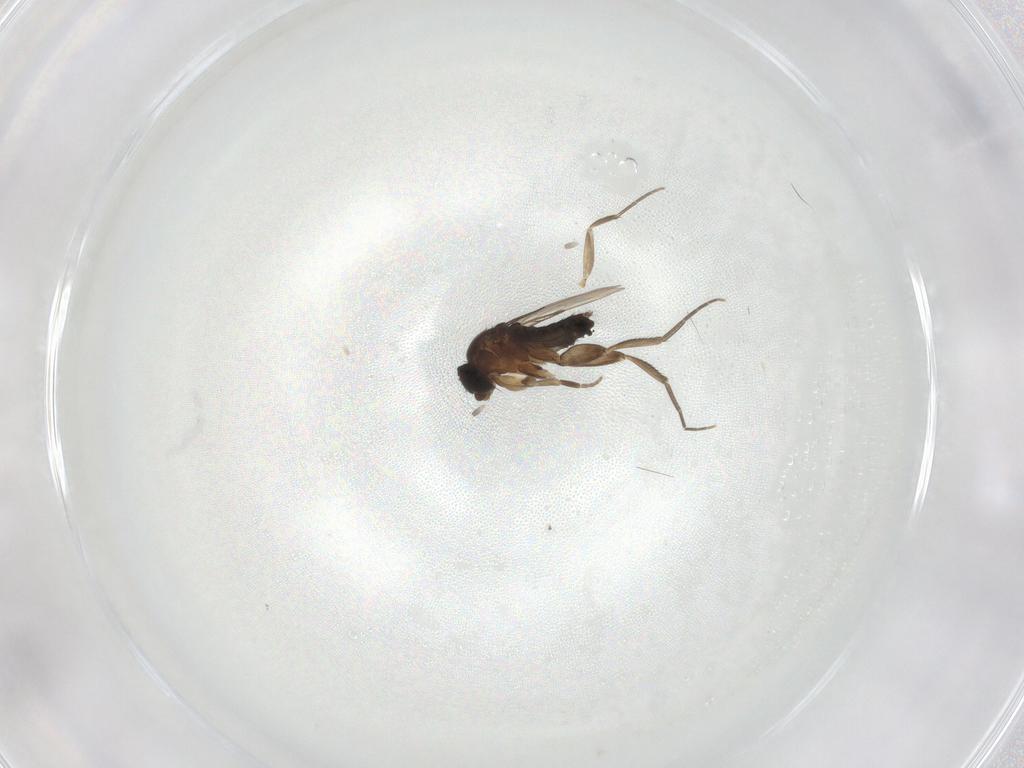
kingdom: Animalia
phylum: Arthropoda
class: Insecta
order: Diptera
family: Phoridae
